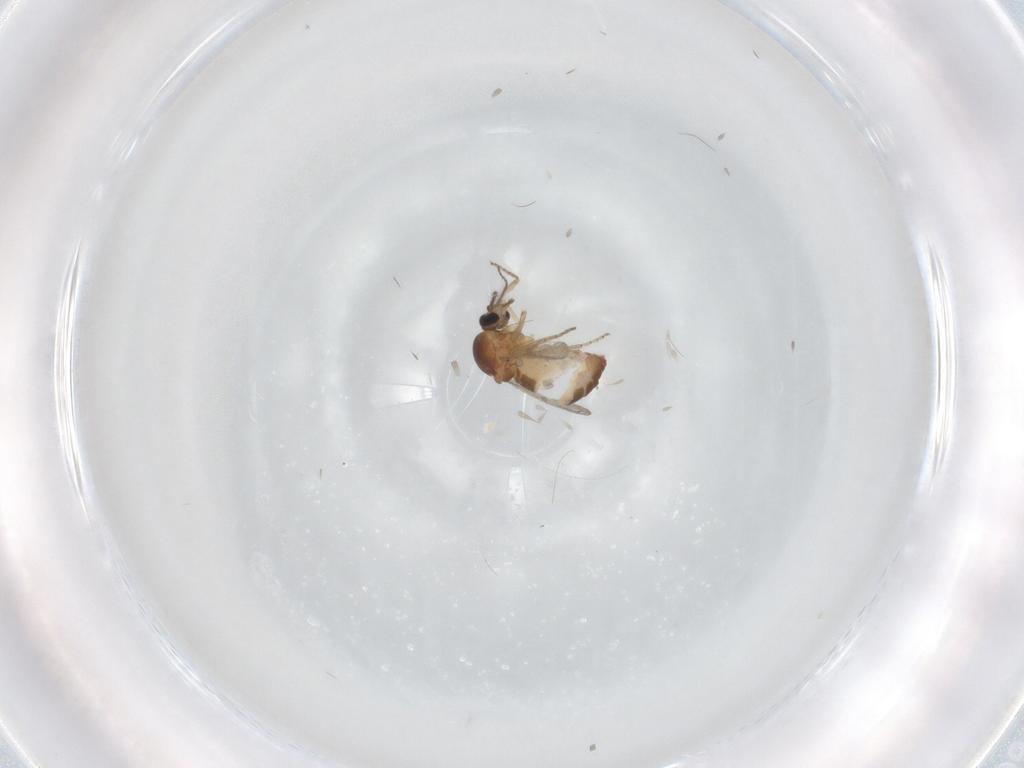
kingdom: Animalia
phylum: Arthropoda
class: Insecta
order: Diptera
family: Ceratopogonidae
